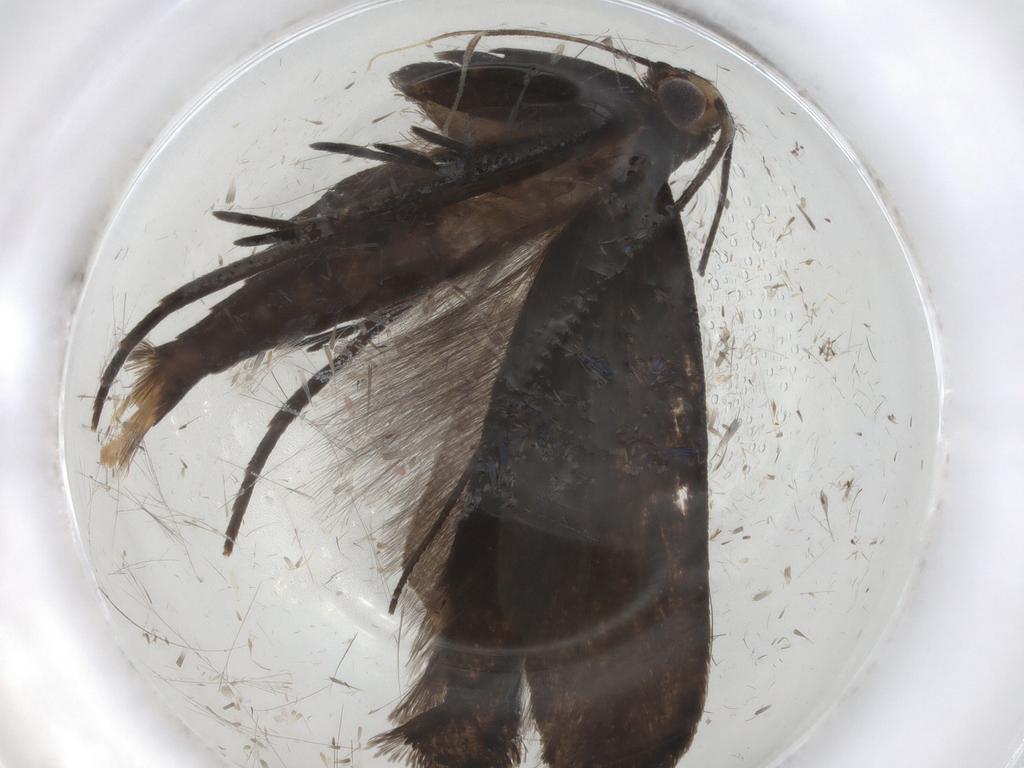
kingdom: Animalia
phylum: Arthropoda
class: Insecta
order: Lepidoptera
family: Gelechiidae
